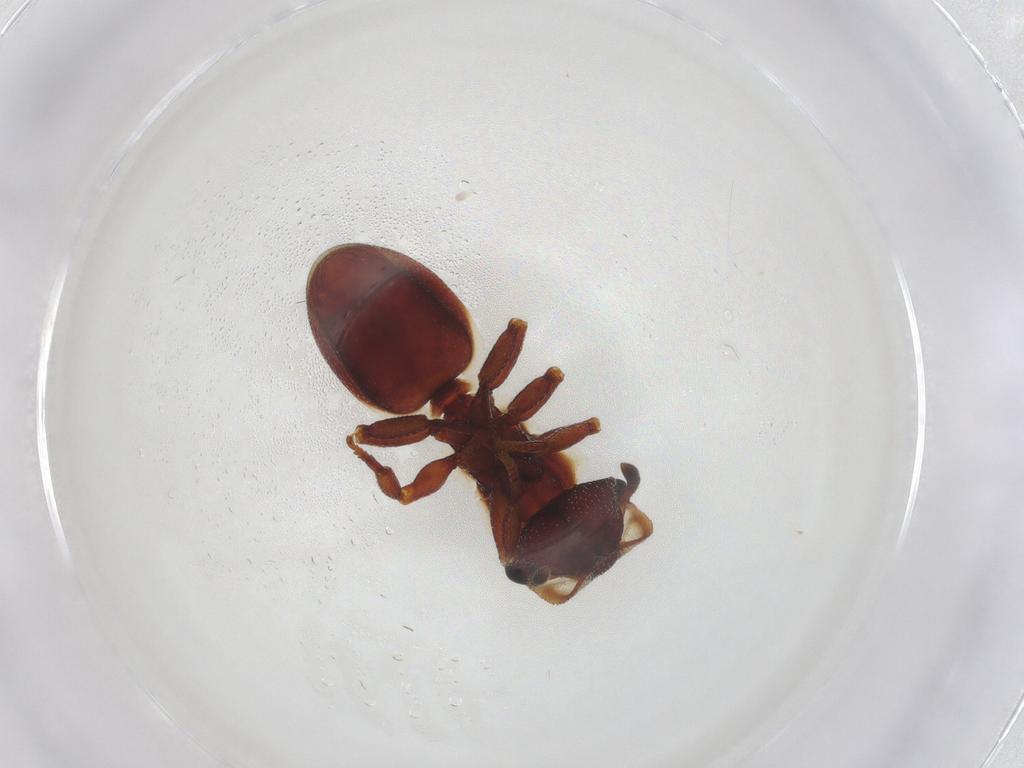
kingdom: Animalia
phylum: Arthropoda
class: Insecta
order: Hymenoptera
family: Formicidae
